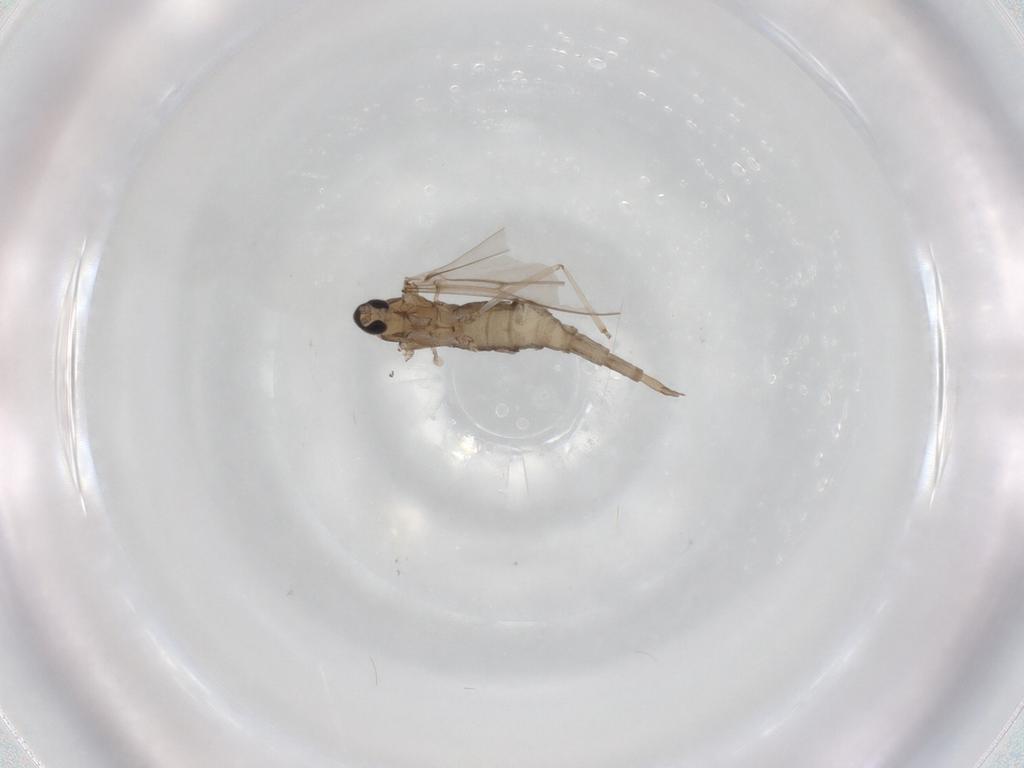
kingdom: Animalia
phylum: Arthropoda
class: Insecta
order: Diptera
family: Cecidomyiidae
